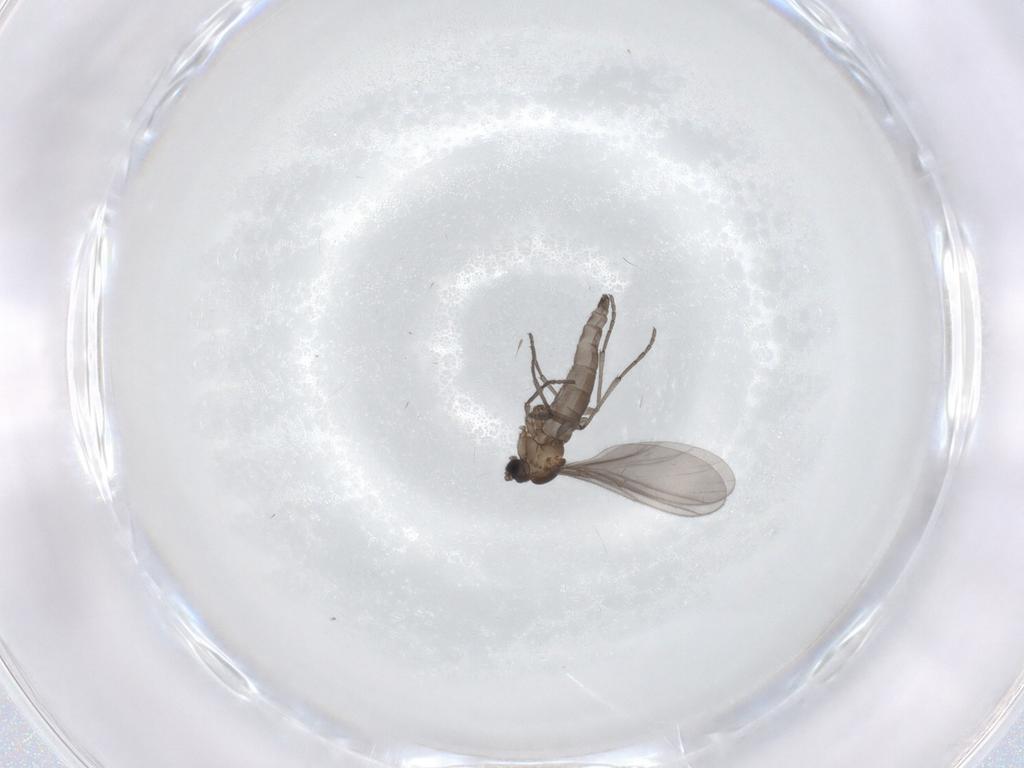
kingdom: Animalia
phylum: Arthropoda
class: Insecta
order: Diptera
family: Sciaridae
